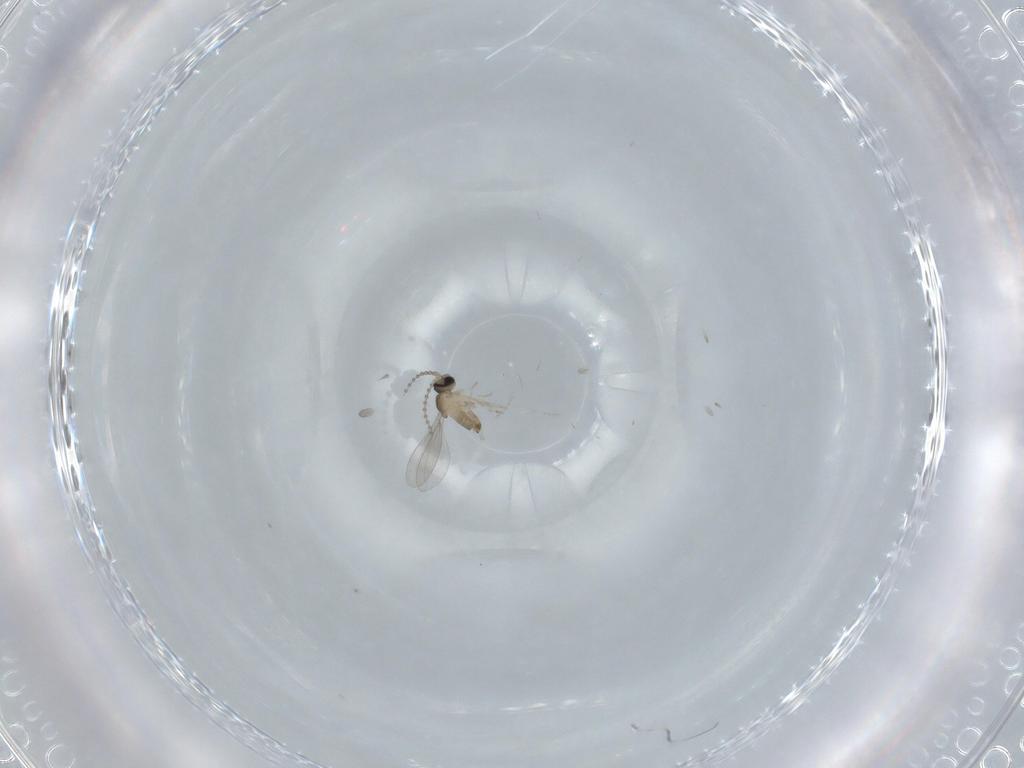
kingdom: Animalia
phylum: Arthropoda
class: Insecta
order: Diptera
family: Cecidomyiidae
